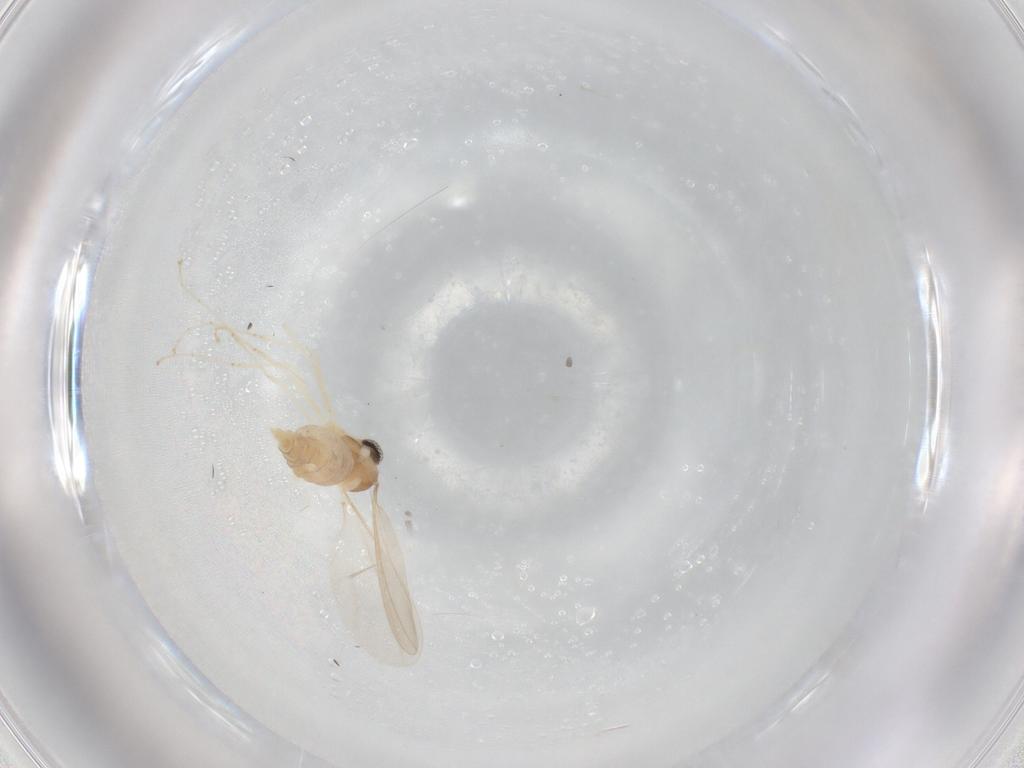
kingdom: Animalia
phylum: Arthropoda
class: Insecta
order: Diptera
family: Cecidomyiidae
